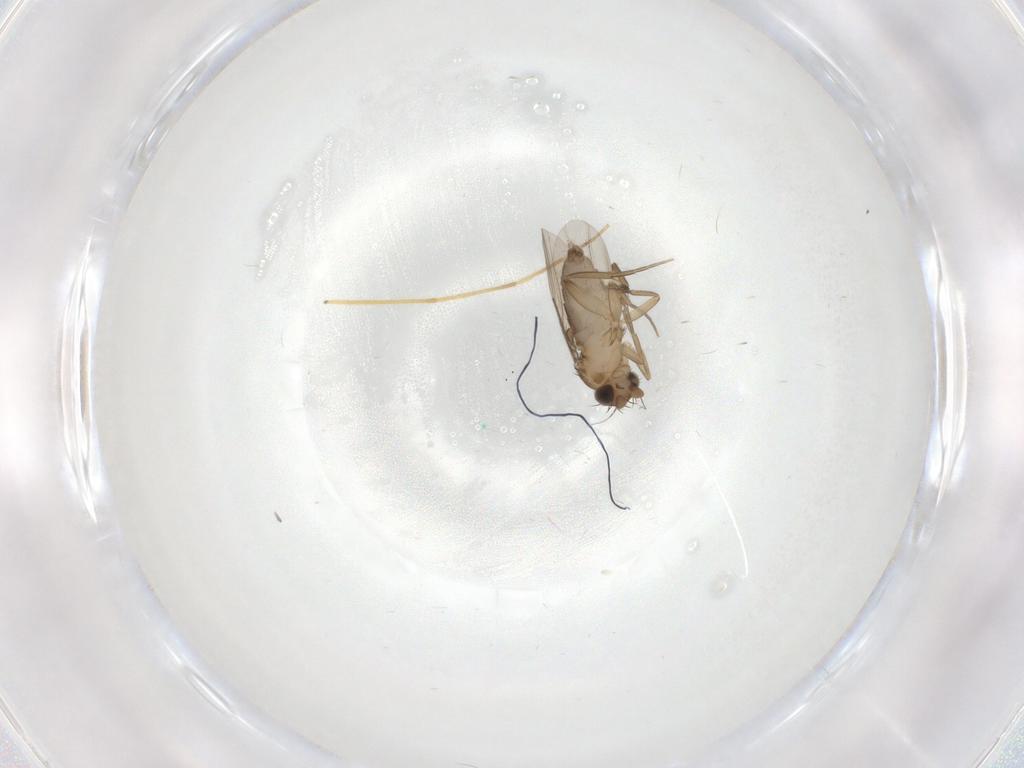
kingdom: Animalia
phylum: Arthropoda
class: Insecta
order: Diptera
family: Phoridae
